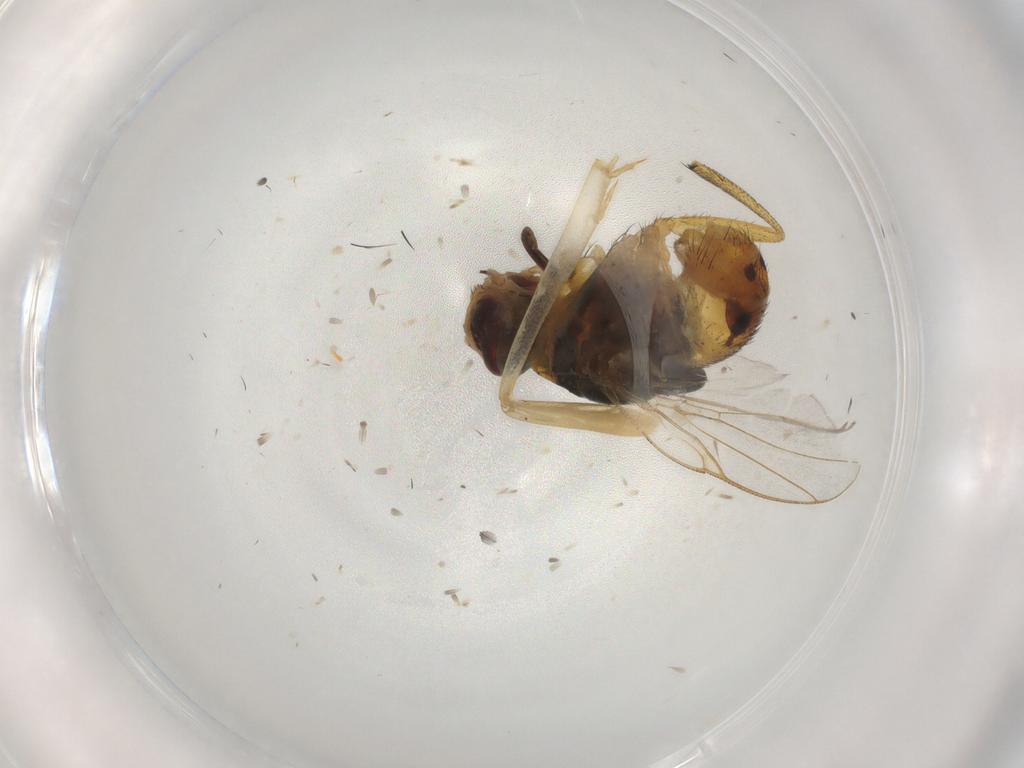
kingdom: Animalia
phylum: Arthropoda
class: Insecta
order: Diptera
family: Muscidae
